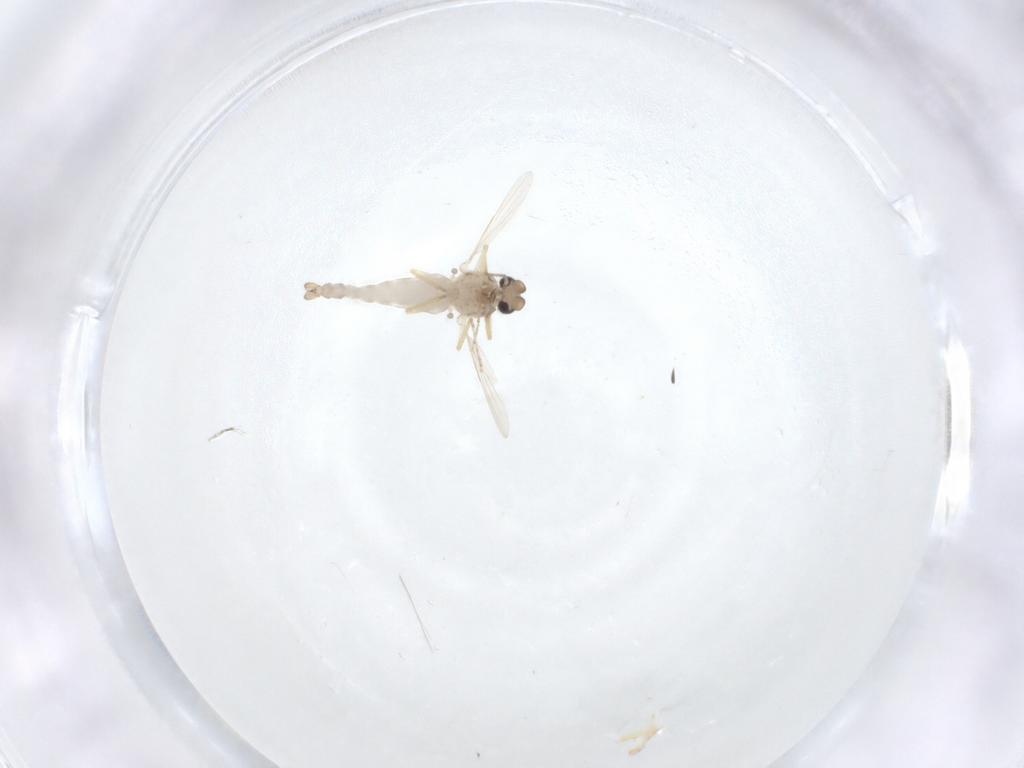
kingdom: Animalia
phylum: Arthropoda
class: Insecta
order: Diptera
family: Ceratopogonidae
